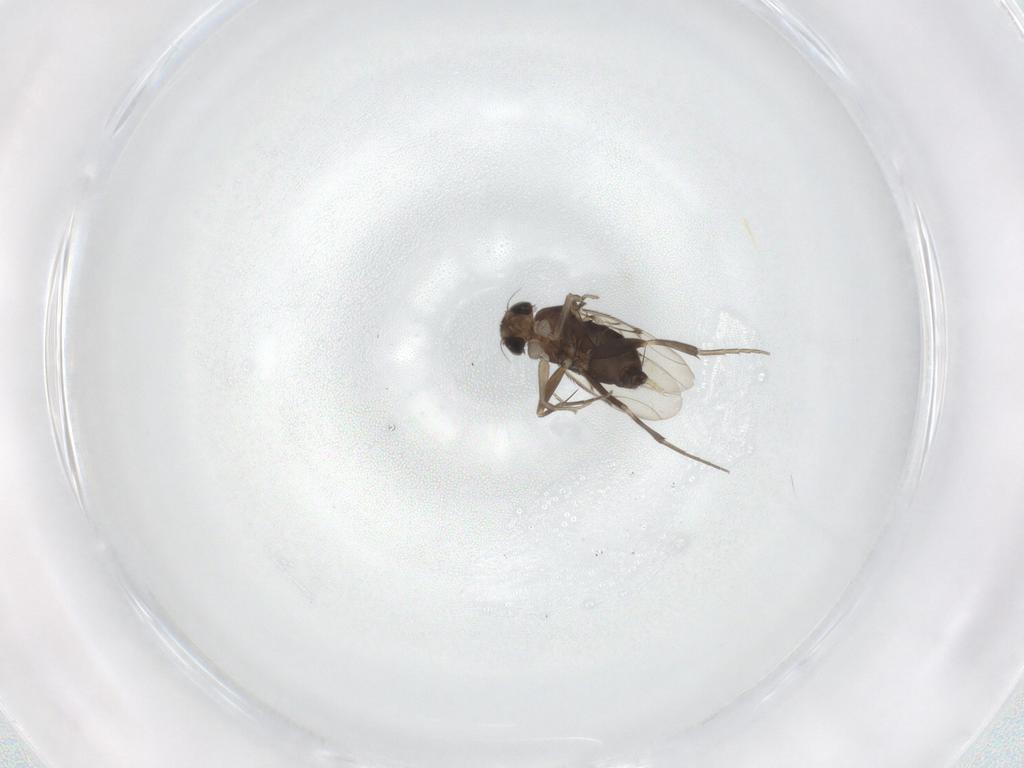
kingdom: Animalia
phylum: Arthropoda
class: Insecta
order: Diptera
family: Phoridae
